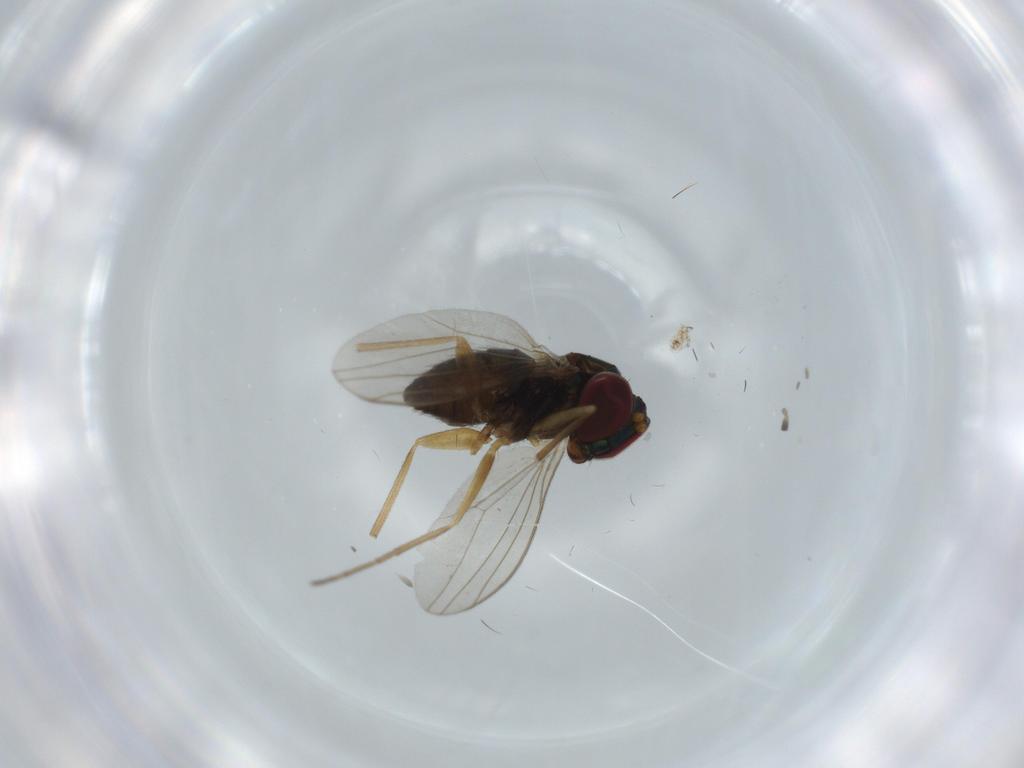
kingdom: Animalia
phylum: Arthropoda
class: Insecta
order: Diptera
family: Dolichopodidae
